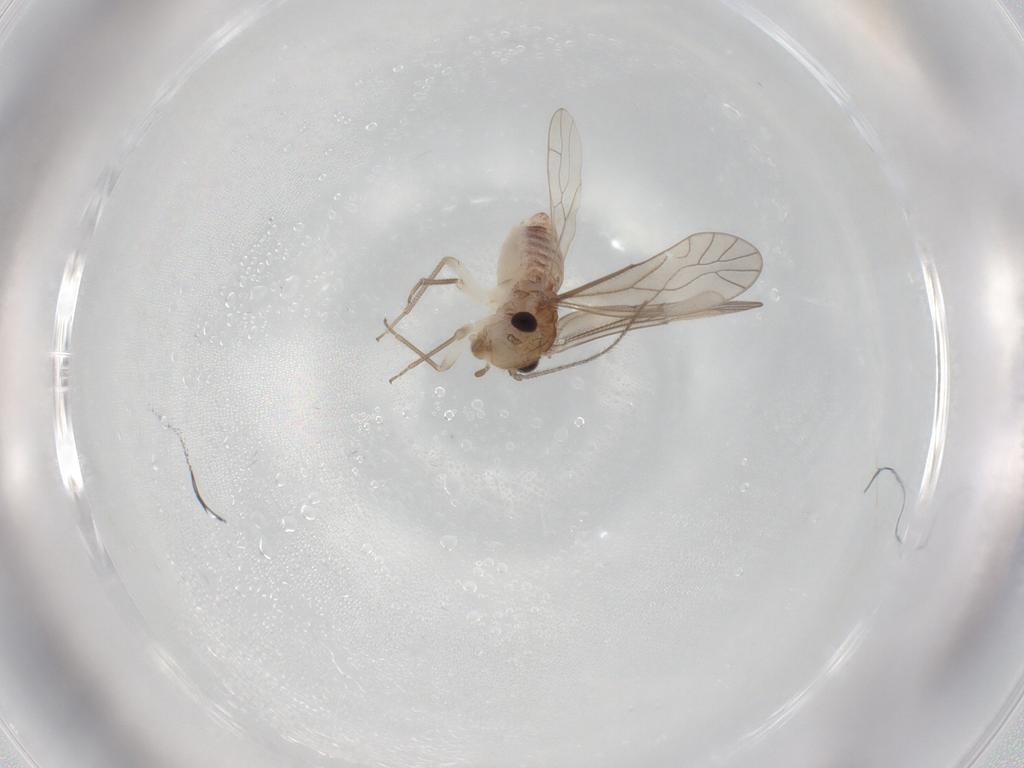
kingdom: Animalia
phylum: Arthropoda
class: Insecta
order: Psocodea
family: Caeciliusidae
